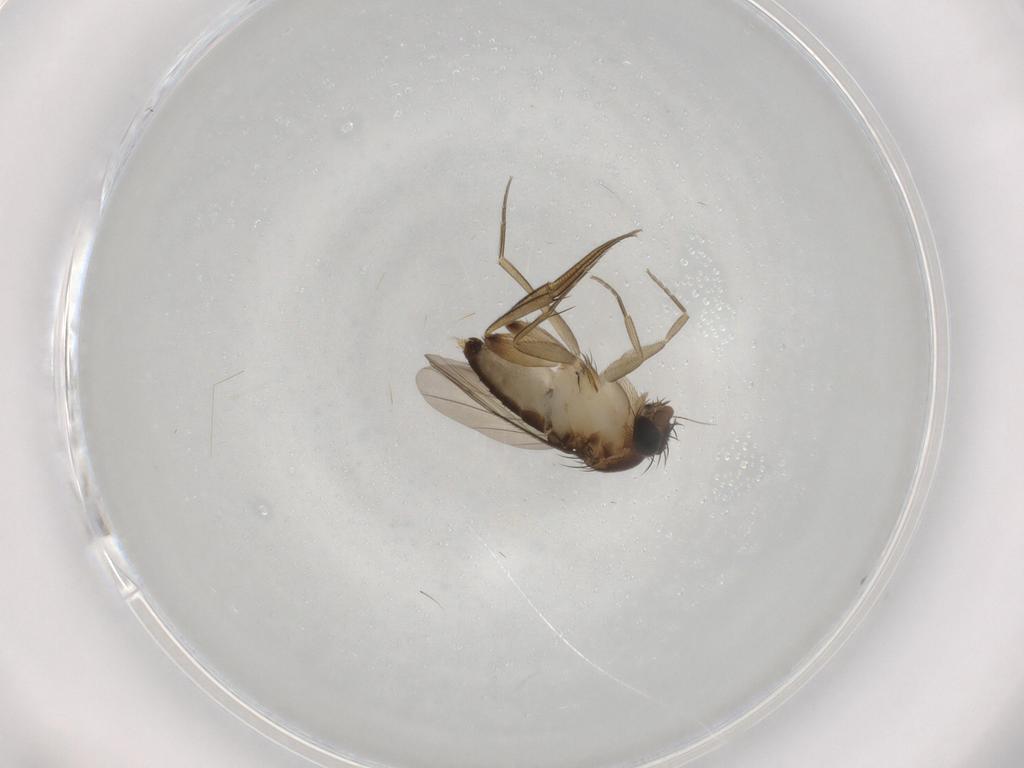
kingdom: Animalia
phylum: Arthropoda
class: Insecta
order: Diptera
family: Phoridae
